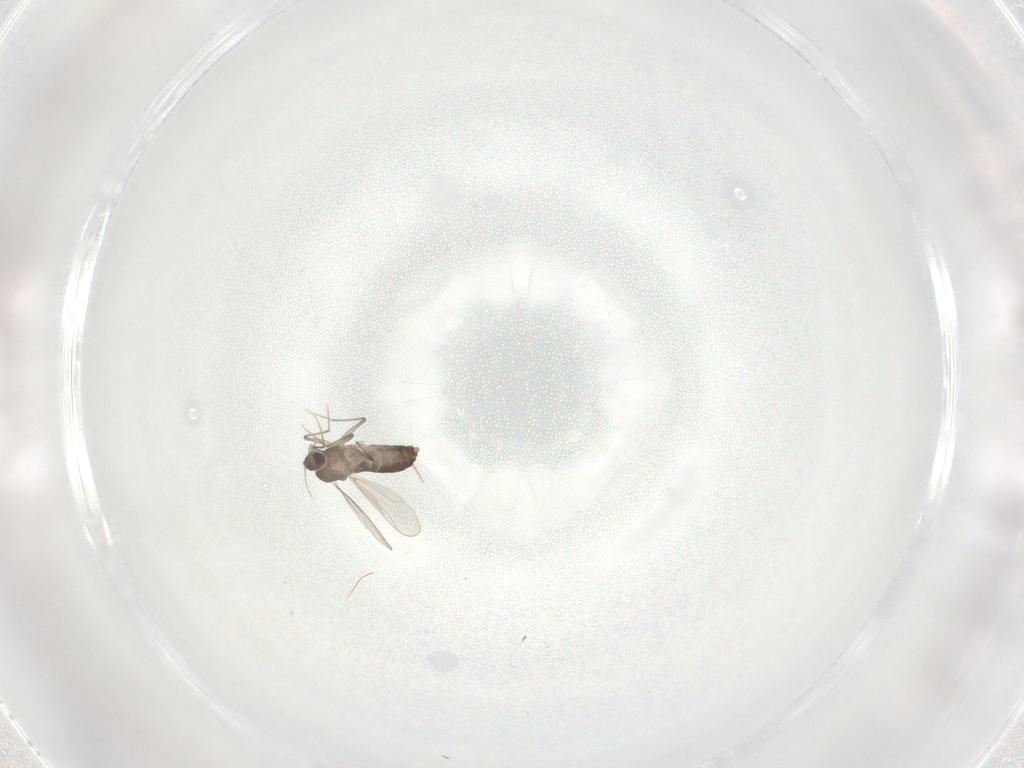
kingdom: Animalia
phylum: Arthropoda
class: Insecta
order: Diptera
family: Chironomidae
